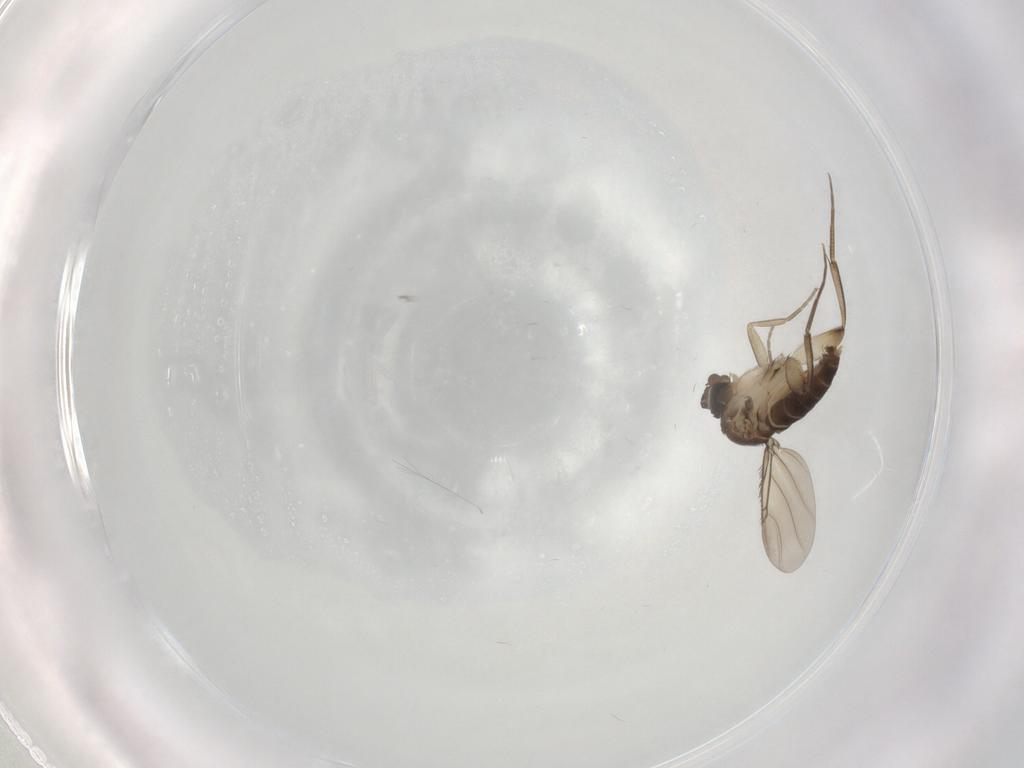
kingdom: Animalia
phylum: Arthropoda
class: Insecta
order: Diptera
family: Phoridae
